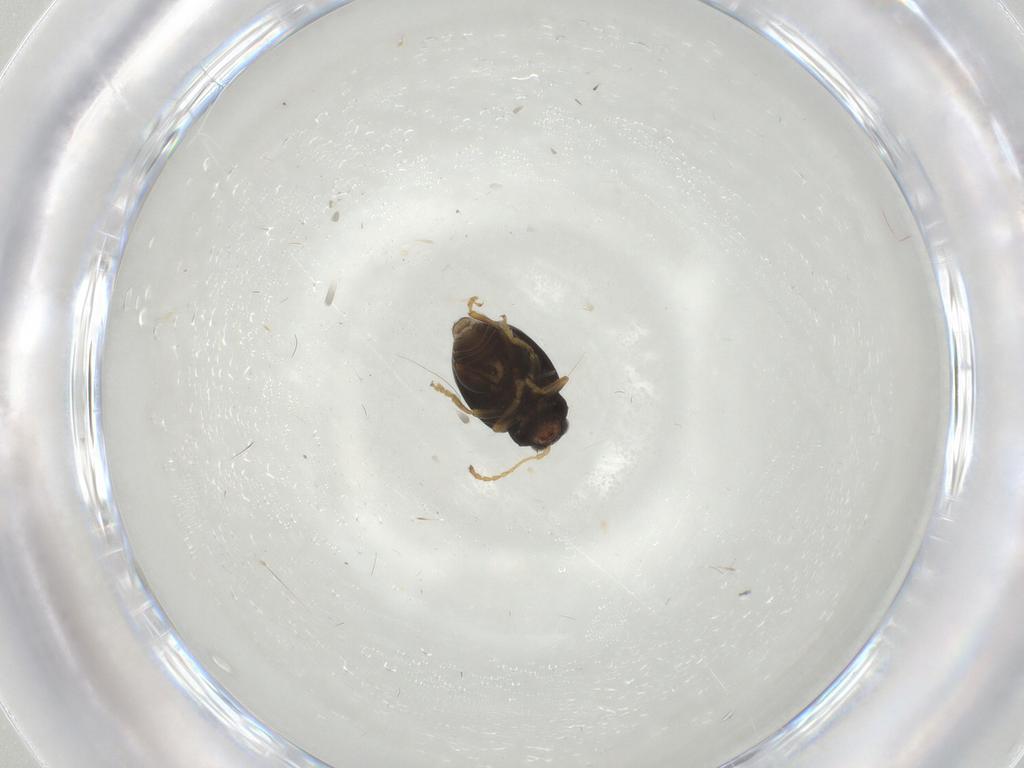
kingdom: Animalia
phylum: Arthropoda
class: Insecta
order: Coleoptera
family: Chrysomelidae
